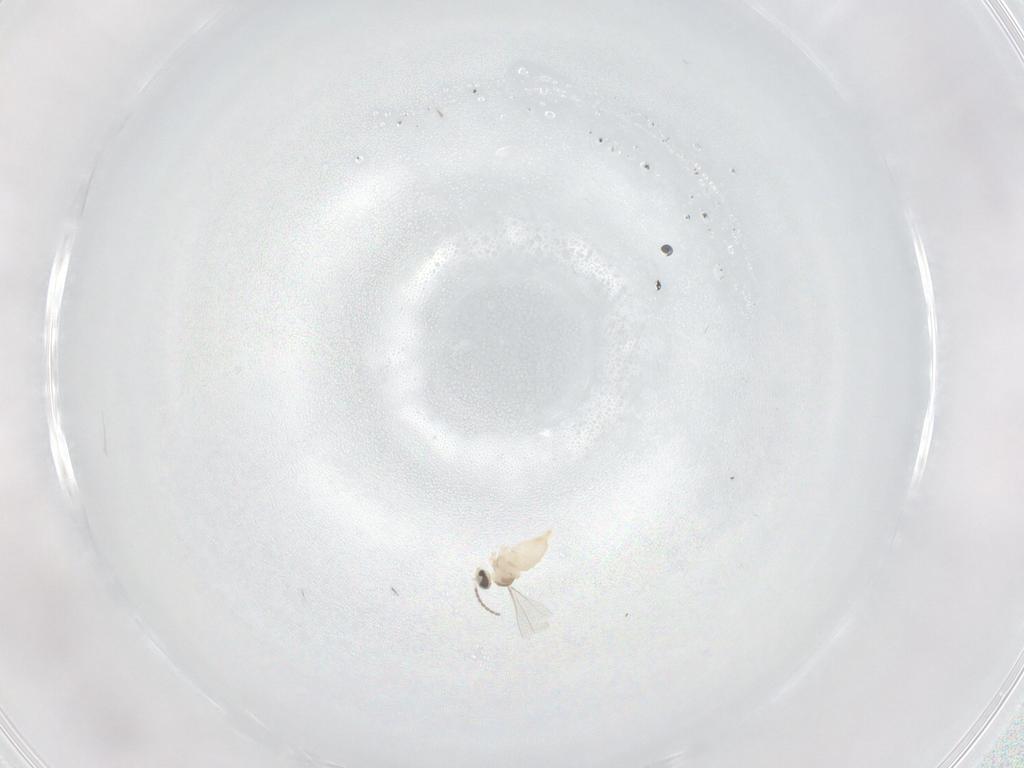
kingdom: Animalia
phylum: Arthropoda
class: Insecta
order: Diptera
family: Cecidomyiidae
